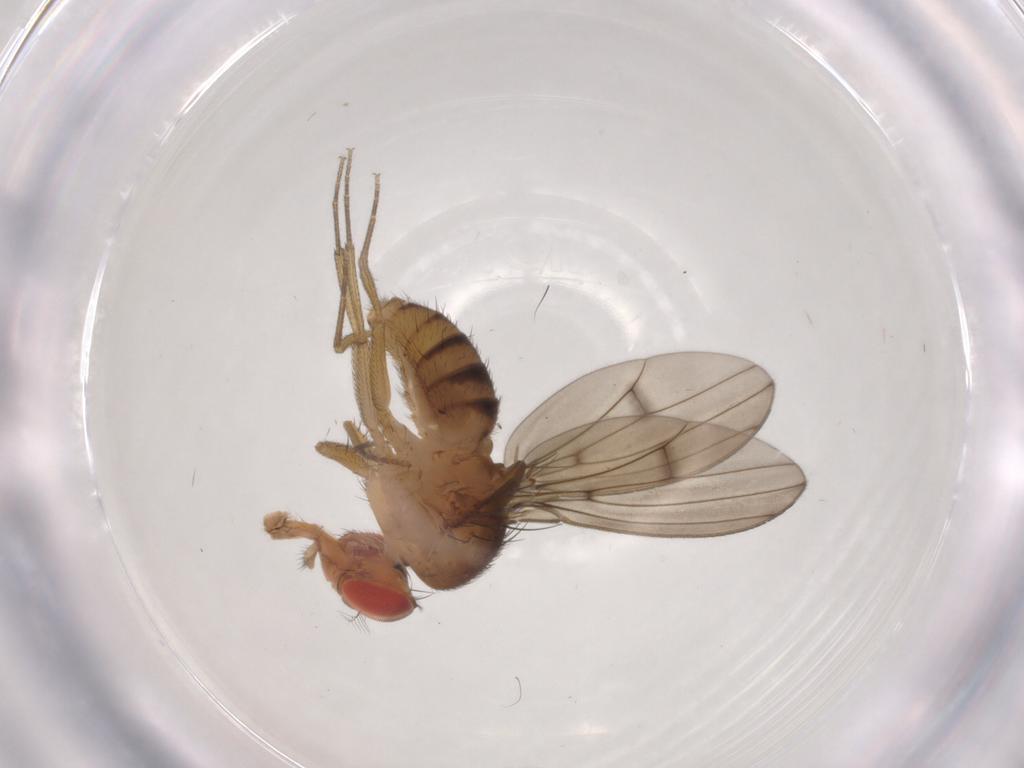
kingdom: Animalia
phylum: Arthropoda
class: Insecta
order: Diptera
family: Drosophilidae
